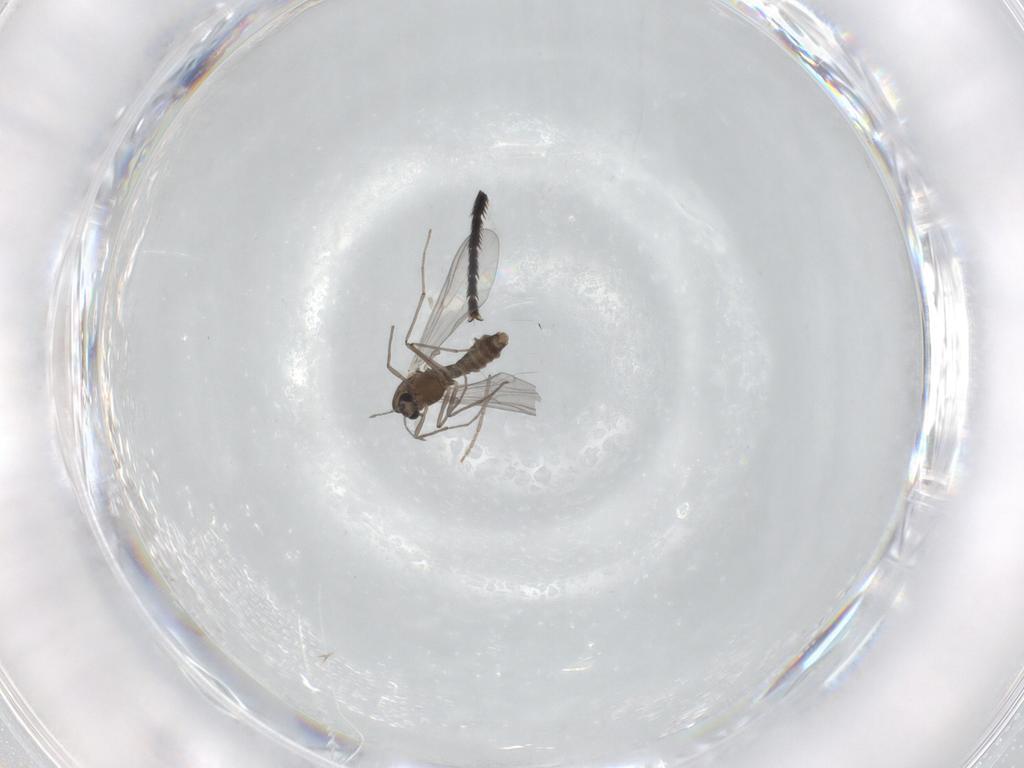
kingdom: Animalia
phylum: Arthropoda
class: Insecta
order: Diptera
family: Chironomidae
